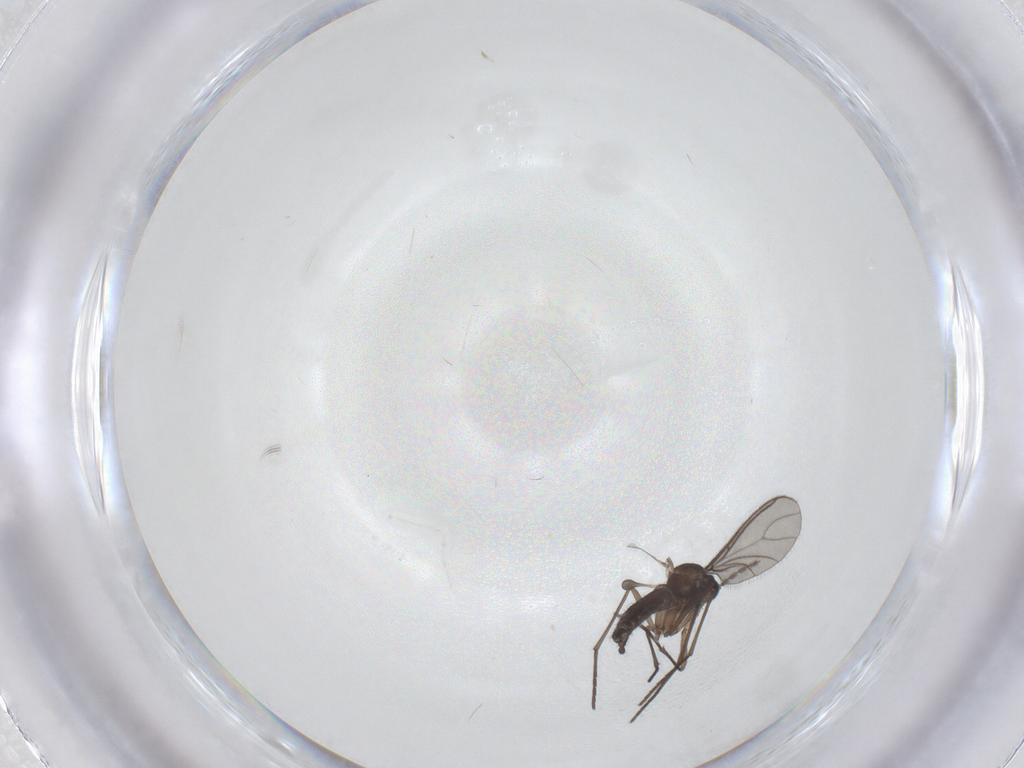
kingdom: Animalia
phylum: Arthropoda
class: Insecta
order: Diptera
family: Sciaridae
